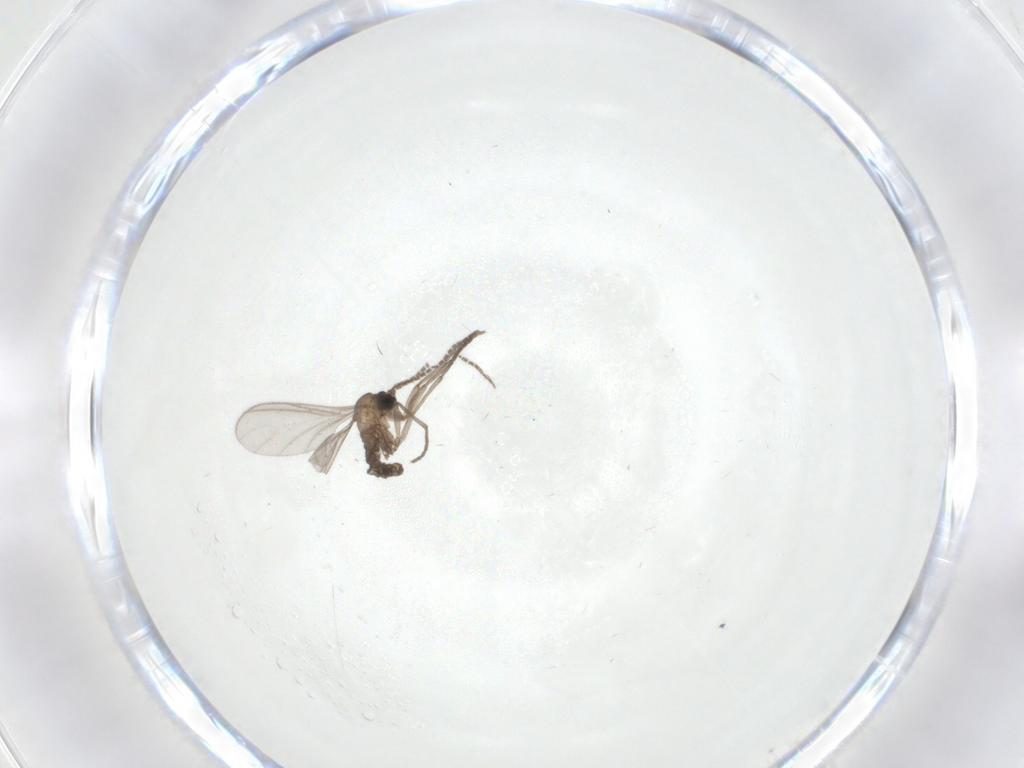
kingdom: Animalia
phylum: Arthropoda
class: Insecta
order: Diptera
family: Sciaridae
